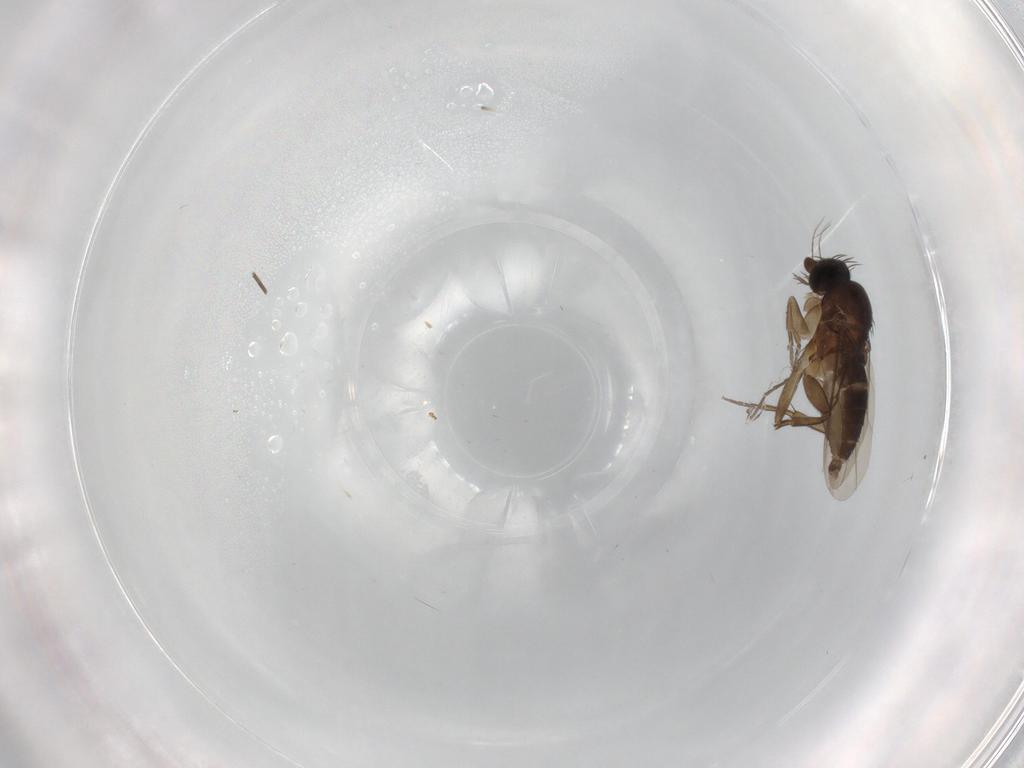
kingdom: Animalia
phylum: Arthropoda
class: Insecta
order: Diptera
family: Phoridae
